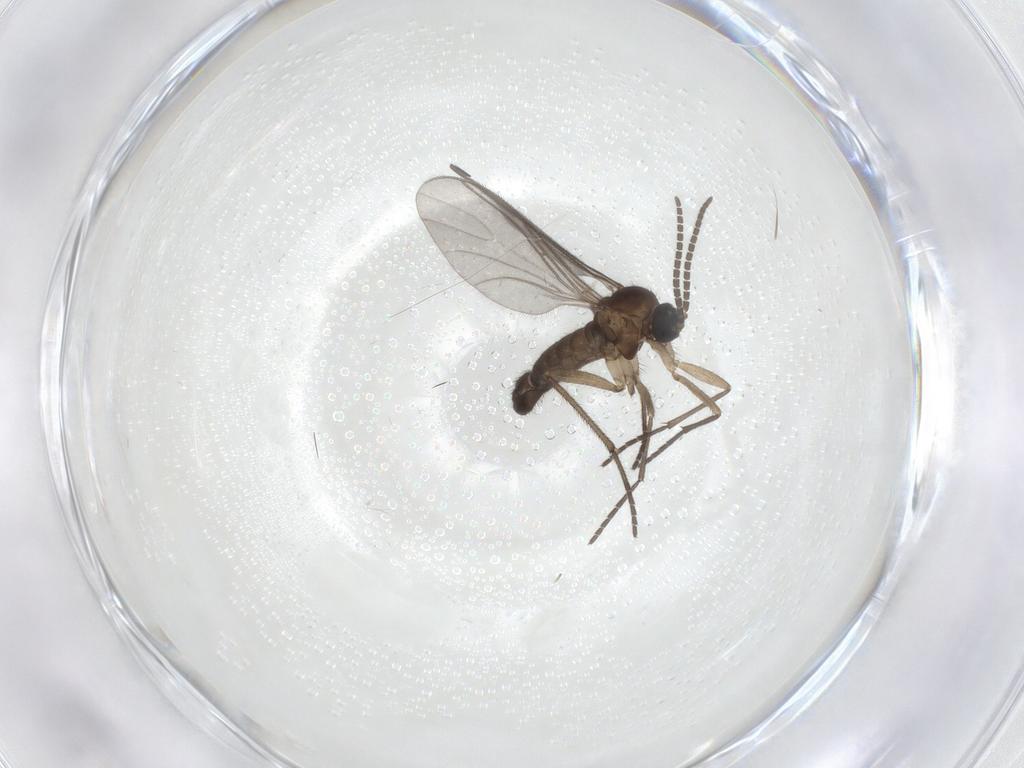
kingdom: Animalia
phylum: Arthropoda
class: Insecta
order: Diptera
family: Sciaridae
